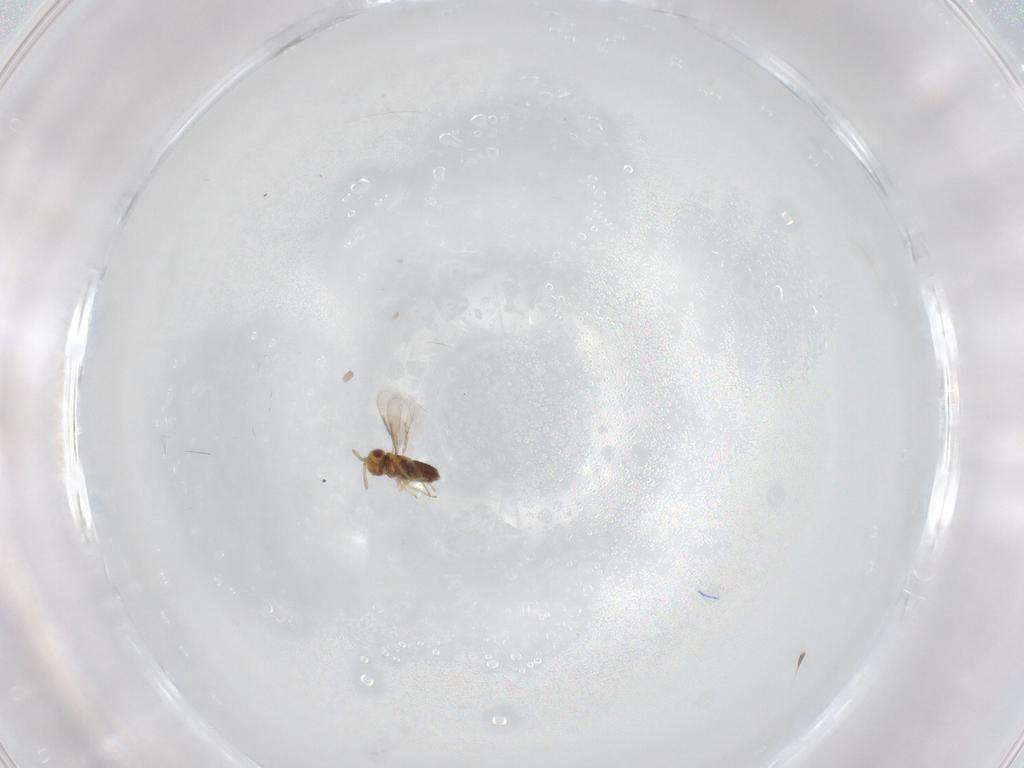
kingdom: Animalia
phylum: Arthropoda
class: Insecta
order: Hymenoptera
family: Aphelinidae
